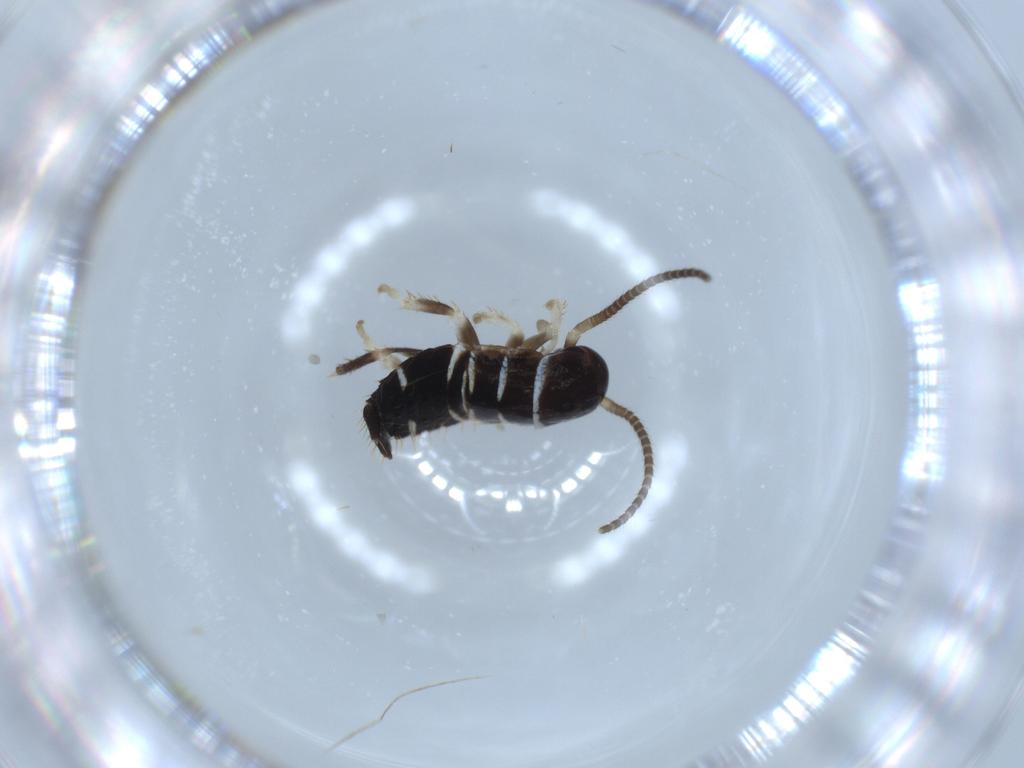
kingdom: Animalia
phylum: Arthropoda
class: Insecta
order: Blattodea
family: Ectobiidae
